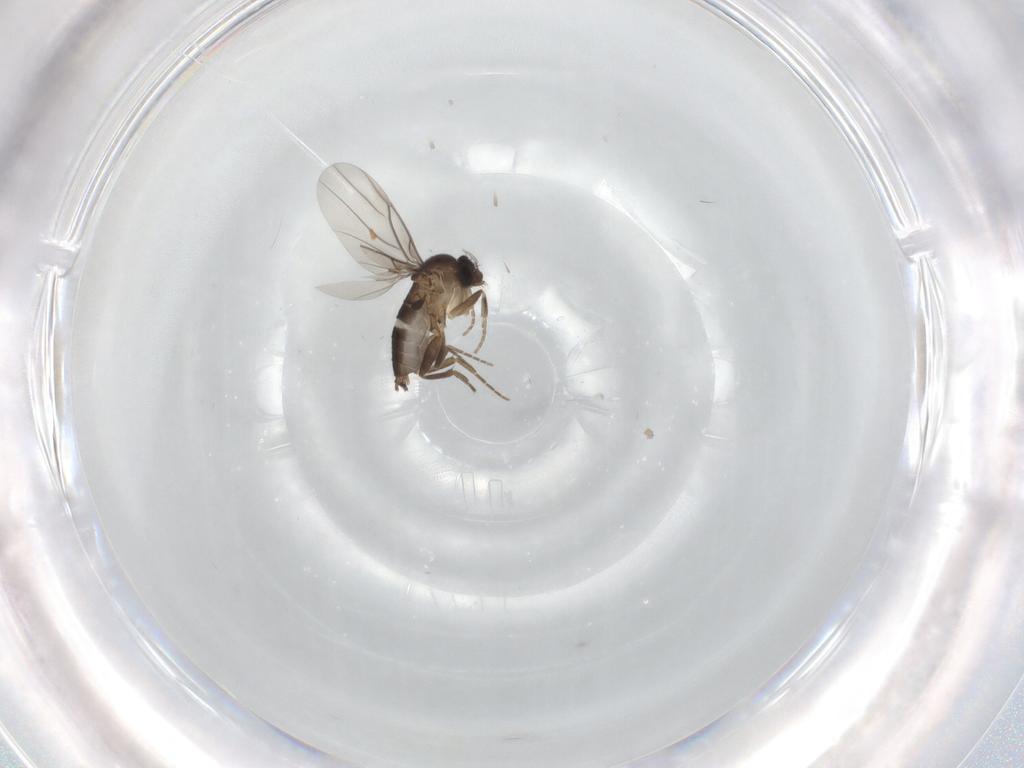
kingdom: Animalia
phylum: Arthropoda
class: Insecta
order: Diptera
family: Phoridae
